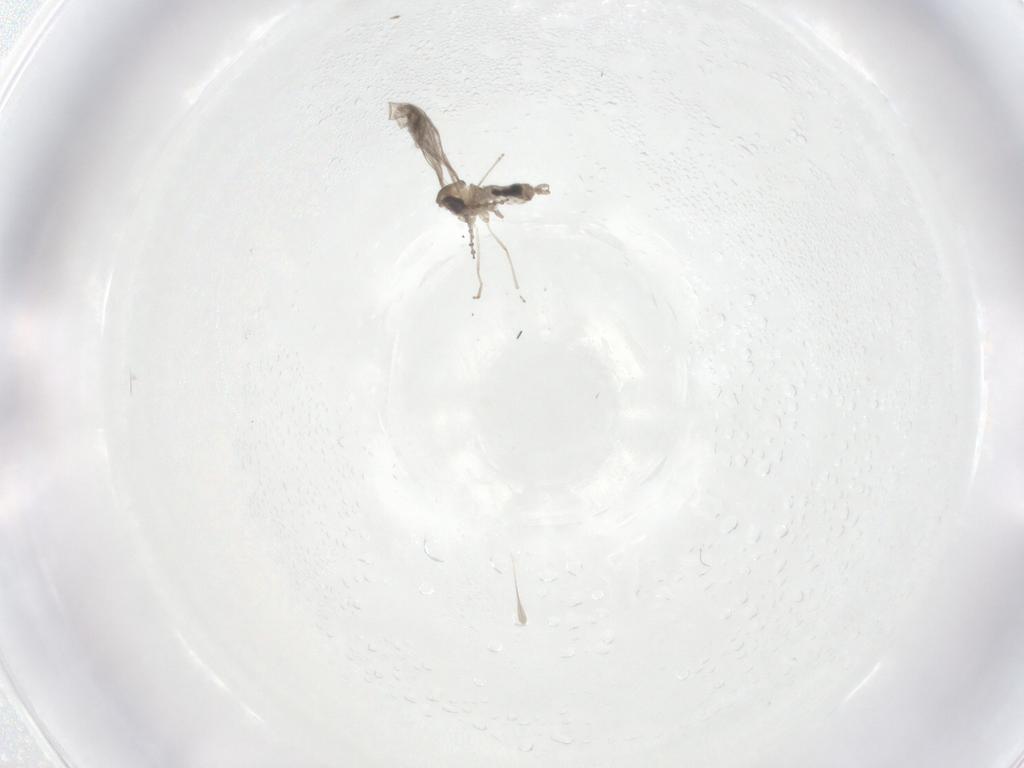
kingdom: Animalia
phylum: Arthropoda
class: Insecta
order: Diptera
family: Cecidomyiidae
